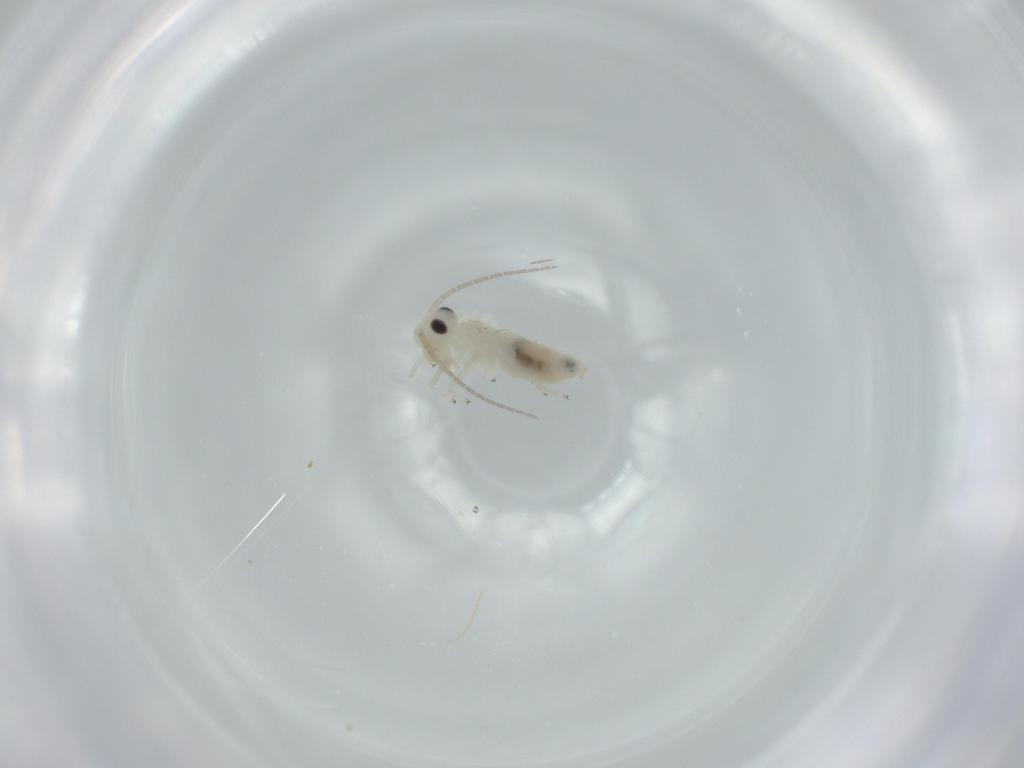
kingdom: Animalia
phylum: Arthropoda
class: Insecta
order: Psocodea
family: Caeciliusidae
